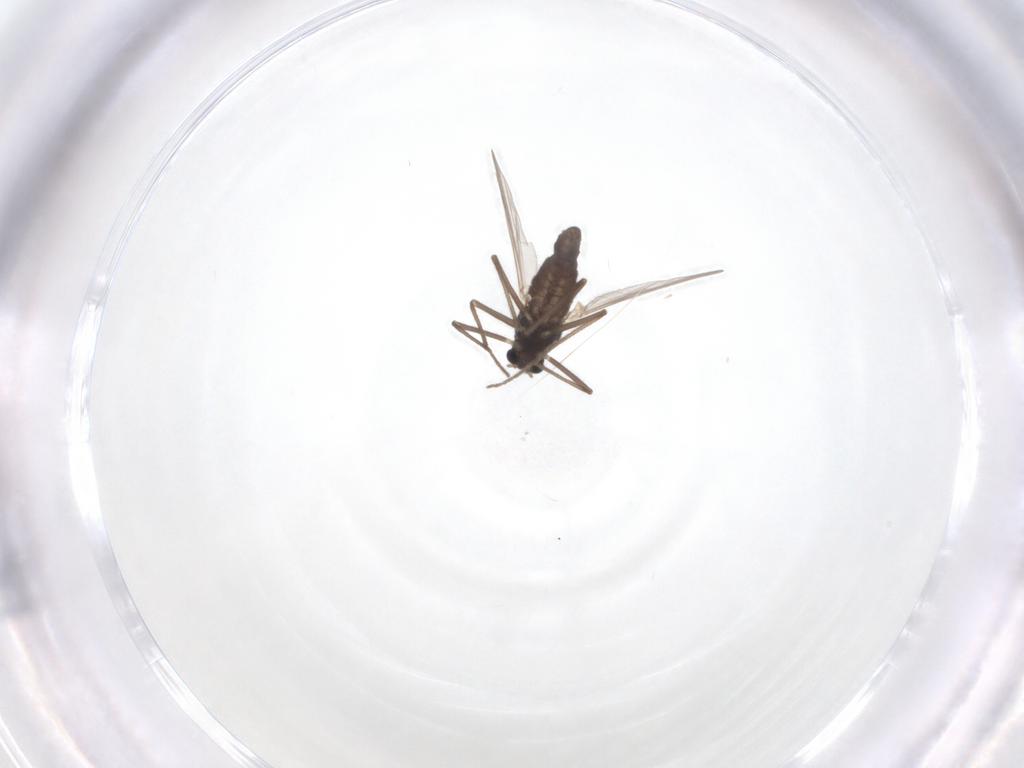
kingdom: Animalia
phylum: Arthropoda
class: Insecta
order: Diptera
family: Chironomidae
